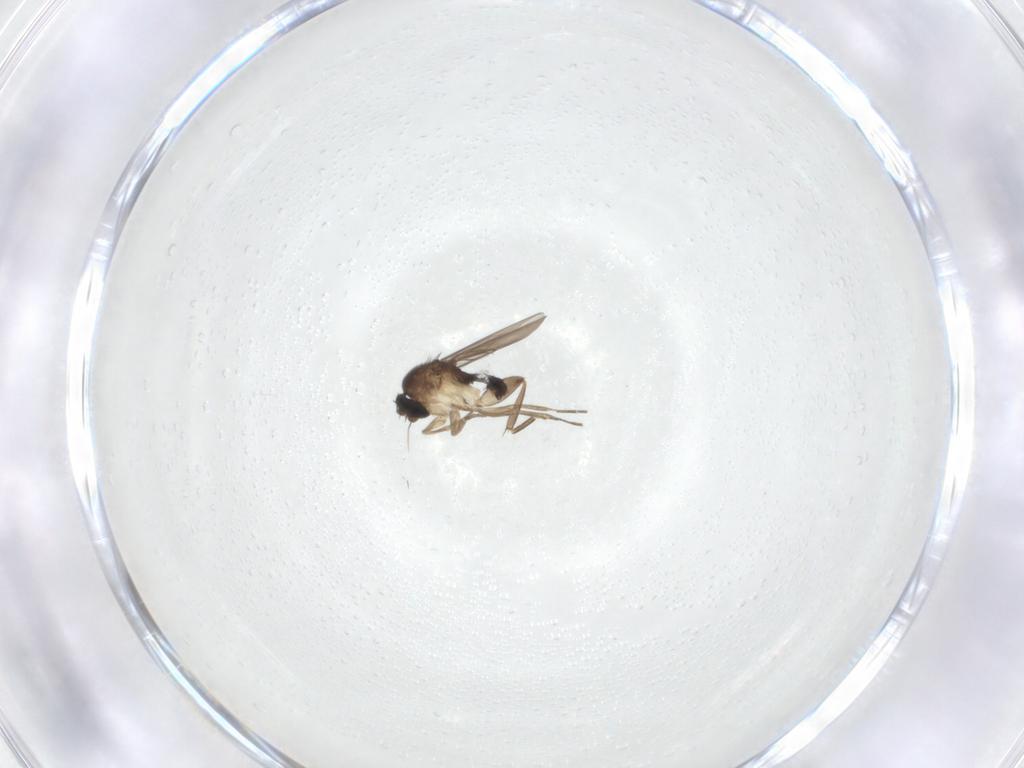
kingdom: Animalia
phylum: Arthropoda
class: Insecta
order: Diptera
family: Phoridae
